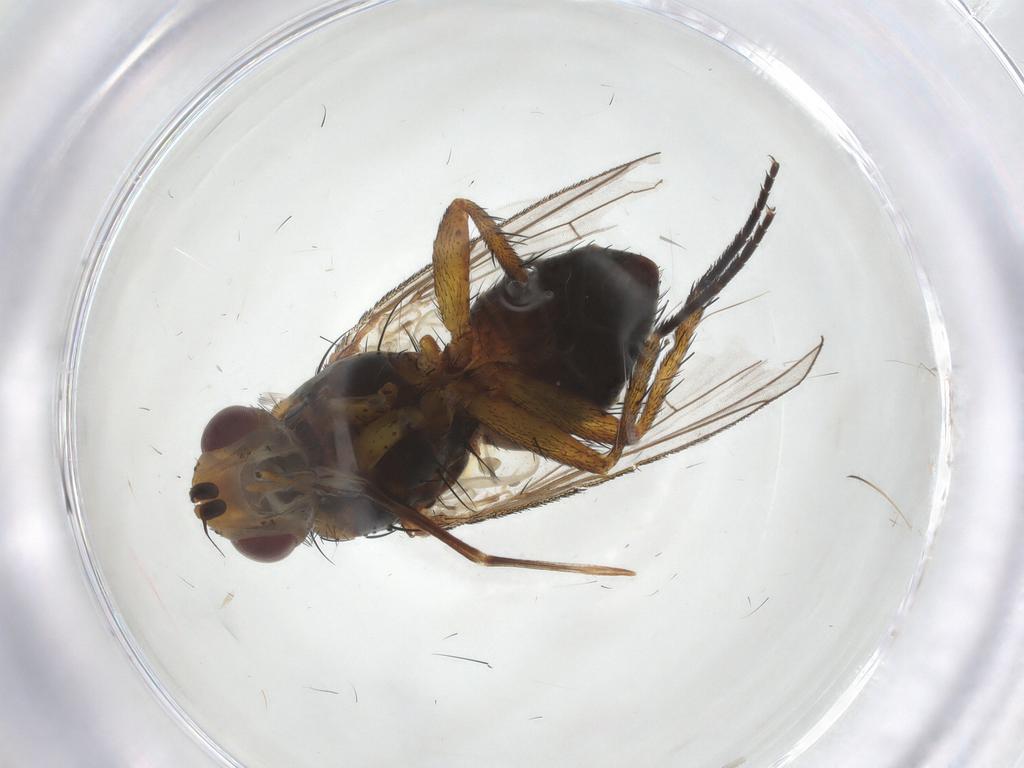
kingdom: Animalia
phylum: Arthropoda
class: Insecta
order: Diptera
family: Tachinidae
